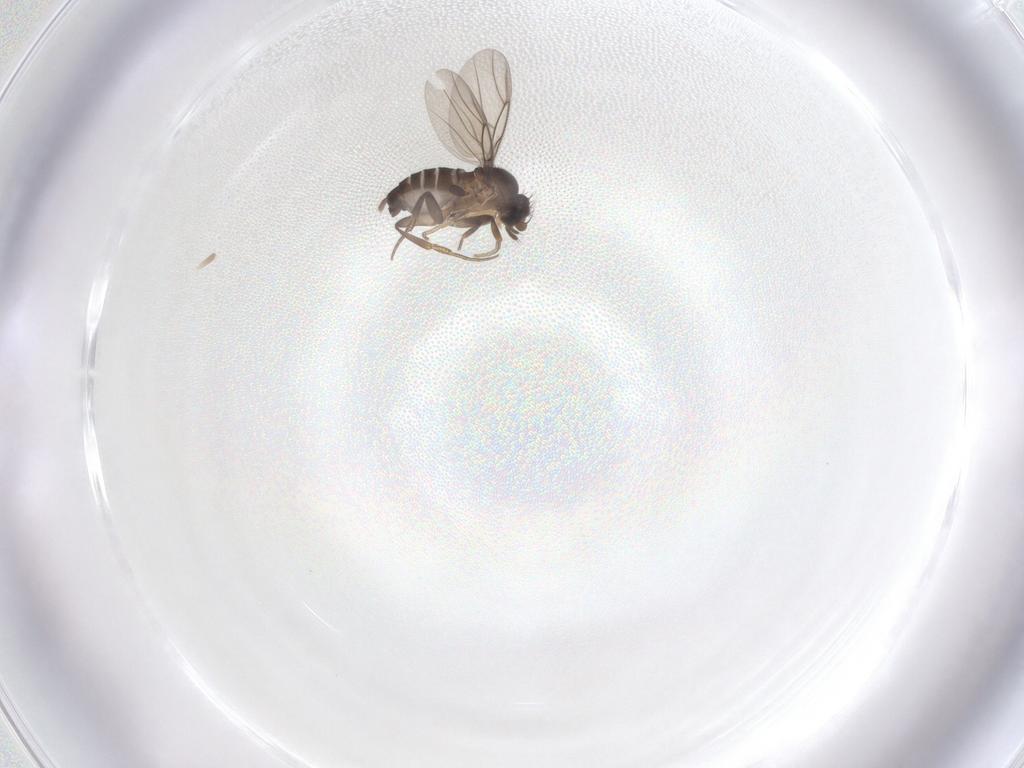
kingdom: Animalia
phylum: Arthropoda
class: Insecta
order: Diptera
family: Phoridae
